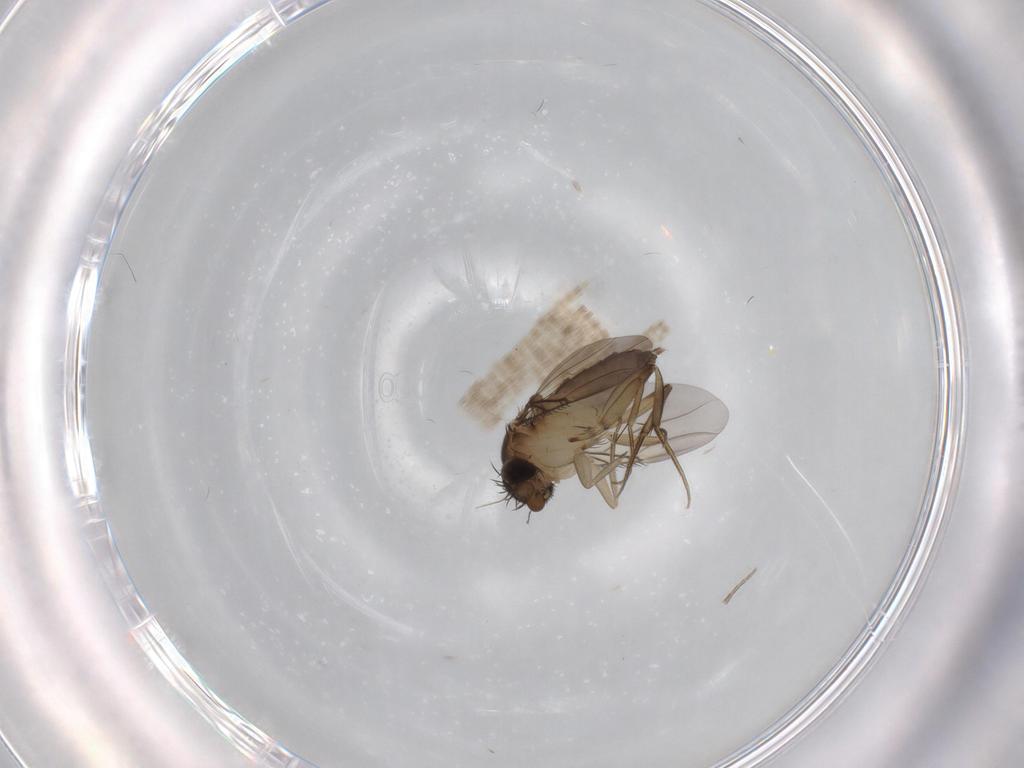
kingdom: Animalia
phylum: Arthropoda
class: Insecta
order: Diptera
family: Phoridae
